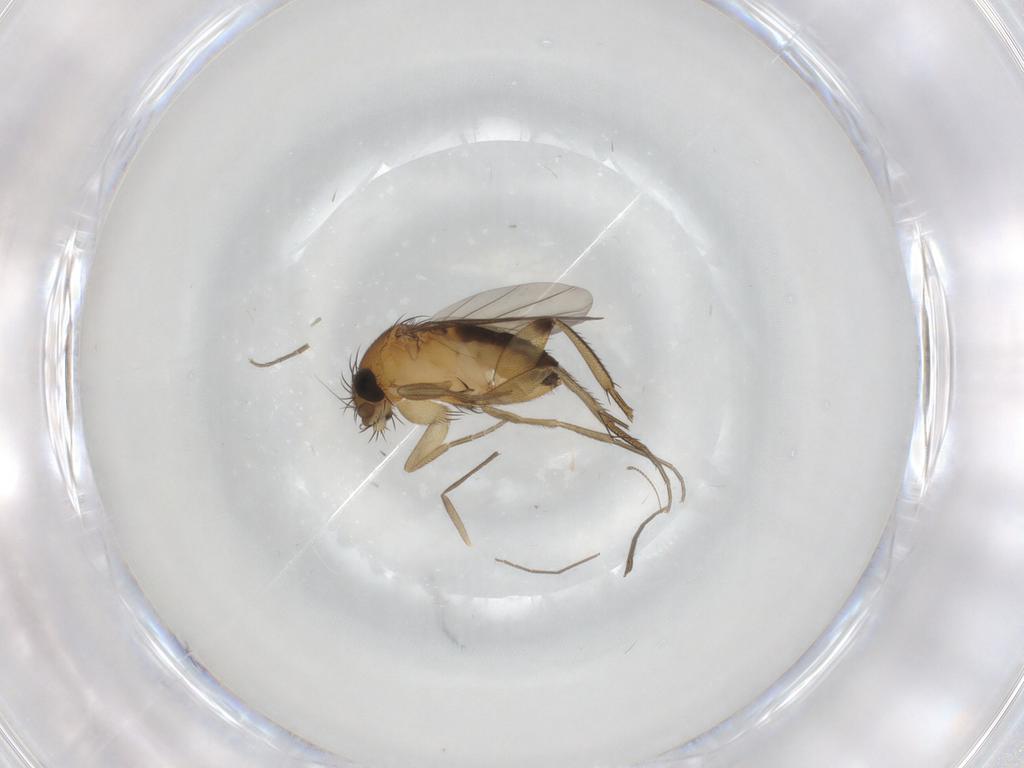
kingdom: Animalia
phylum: Arthropoda
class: Insecta
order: Diptera
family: Chironomidae
